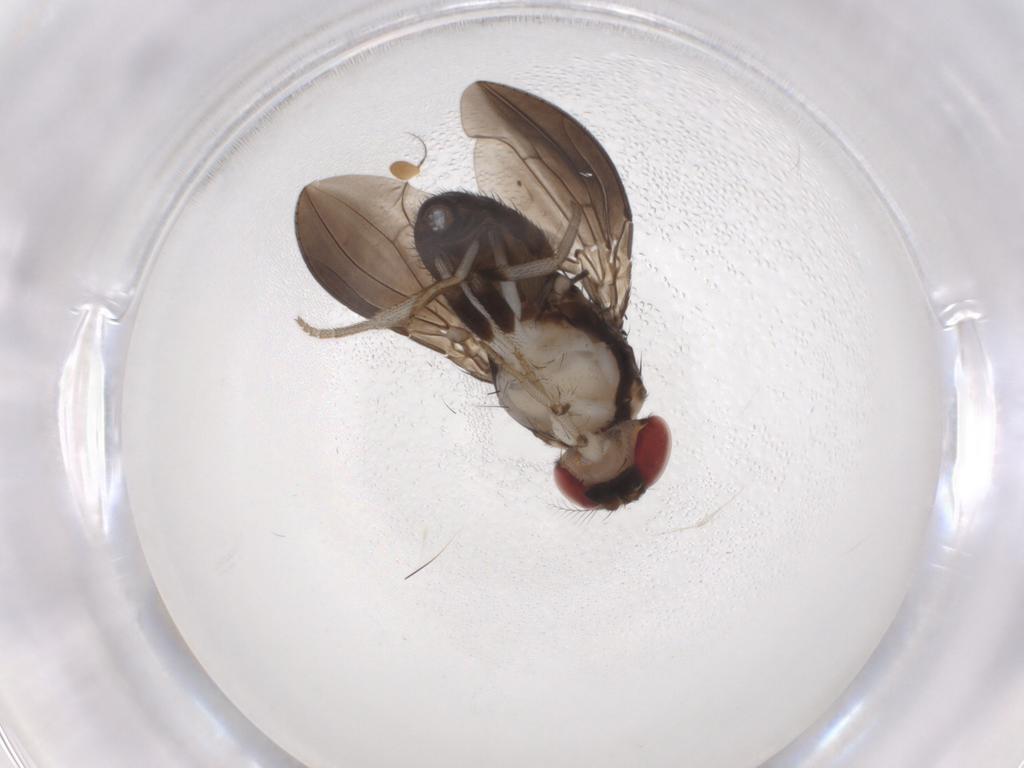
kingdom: Animalia
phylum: Arthropoda
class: Insecta
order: Diptera
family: Drosophilidae
